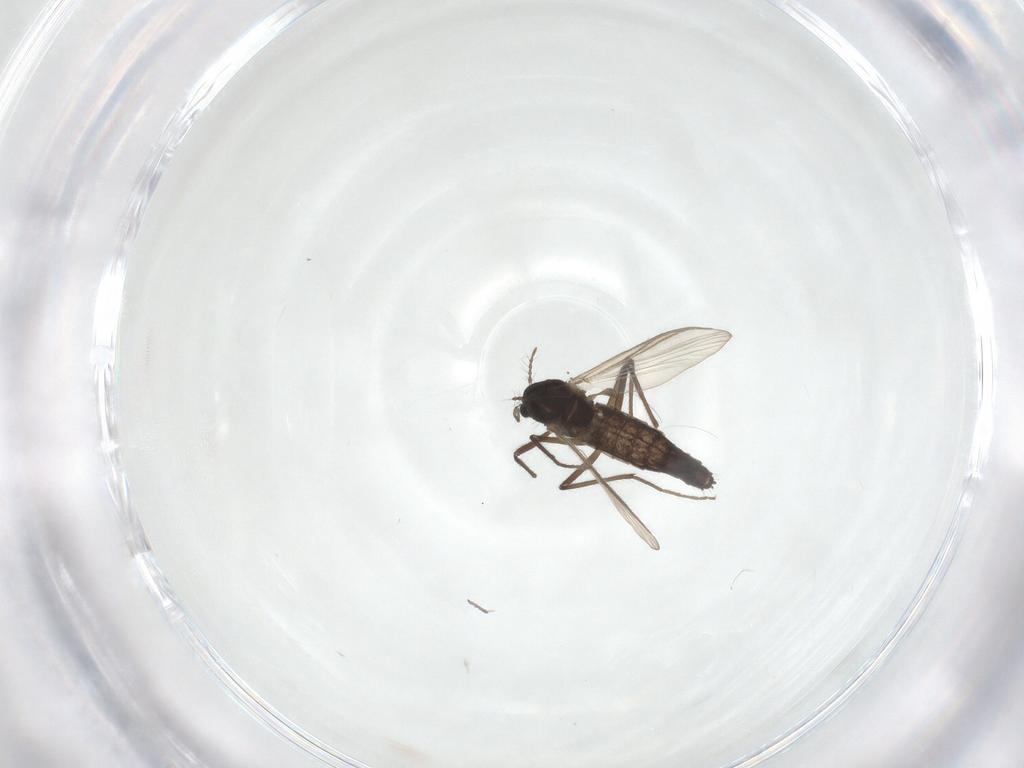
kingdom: Animalia
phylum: Arthropoda
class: Insecta
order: Diptera
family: Chironomidae
